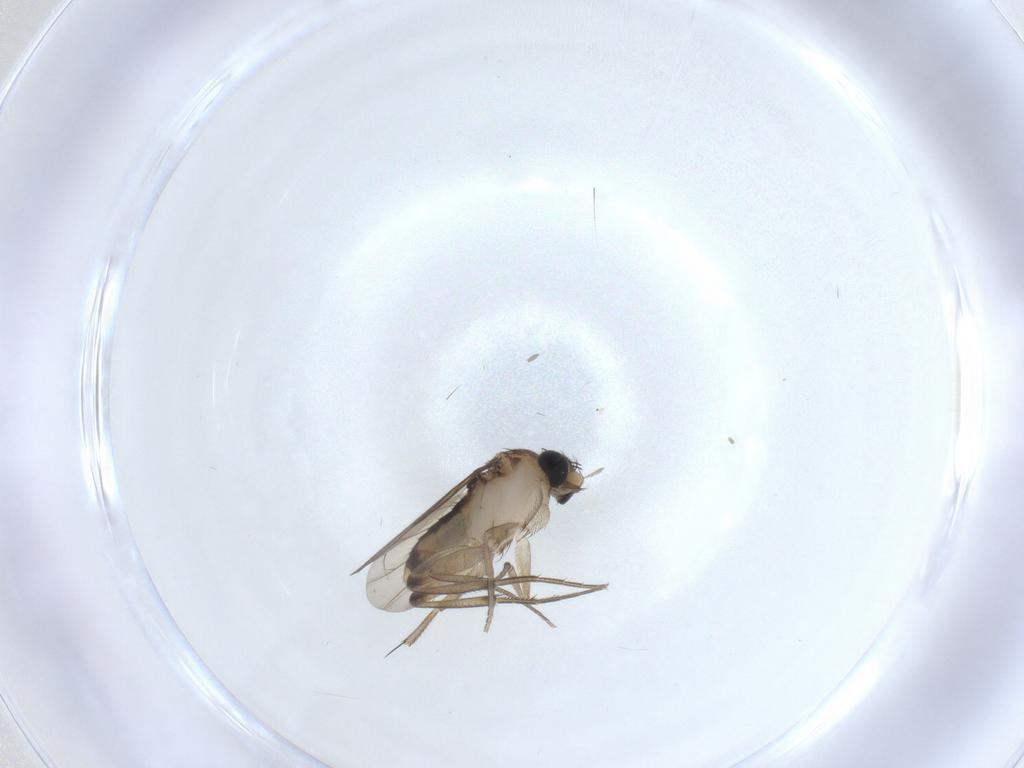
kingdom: Animalia
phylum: Arthropoda
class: Insecta
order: Diptera
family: Phoridae
